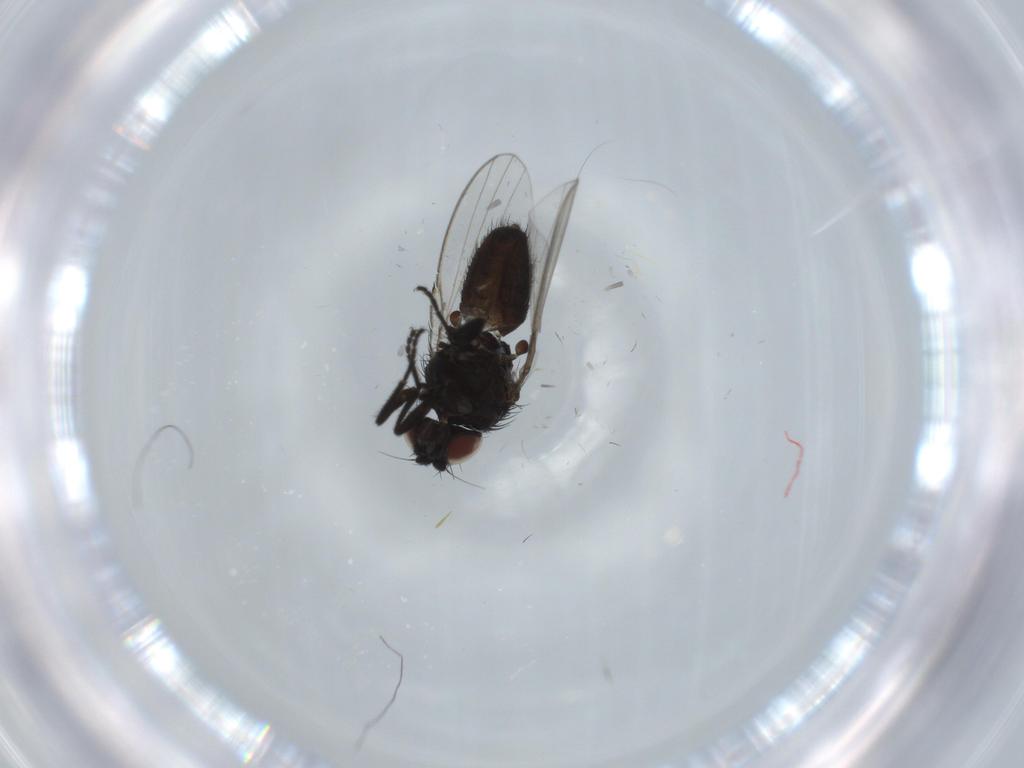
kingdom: Animalia
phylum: Arthropoda
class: Insecta
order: Diptera
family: Milichiidae
